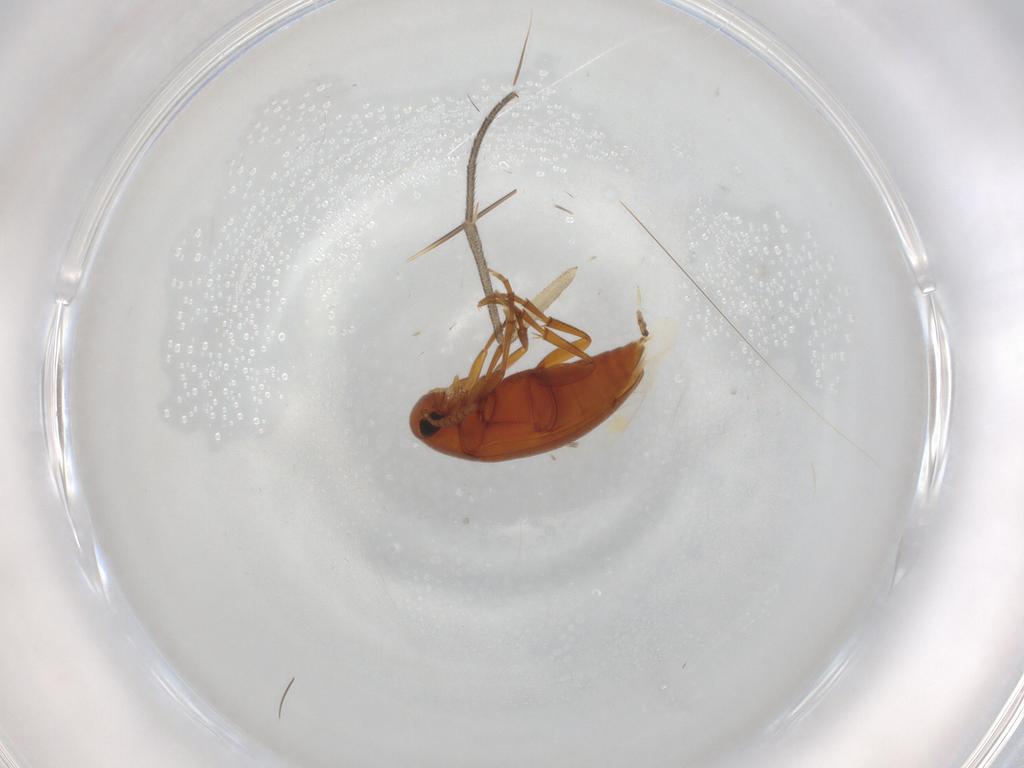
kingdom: Animalia
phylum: Arthropoda
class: Insecta
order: Coleoptera
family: Scraptiidae
